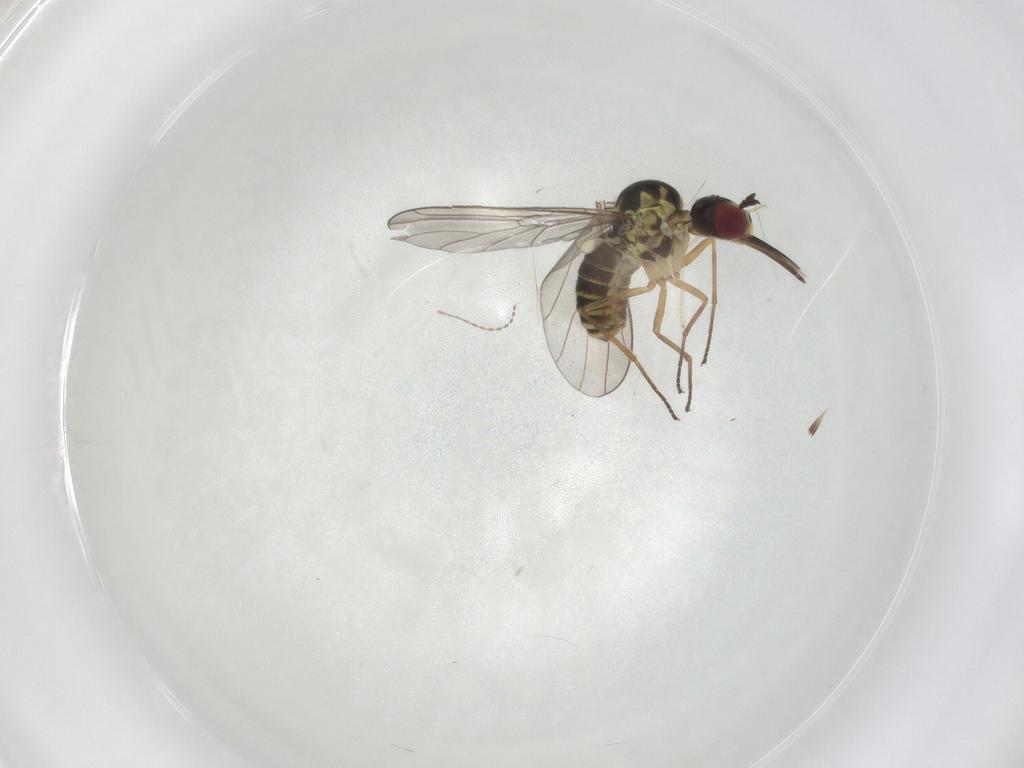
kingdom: Animalia
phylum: Arthropoda
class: Insecta
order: Diptera
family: Mythicomyiidae
